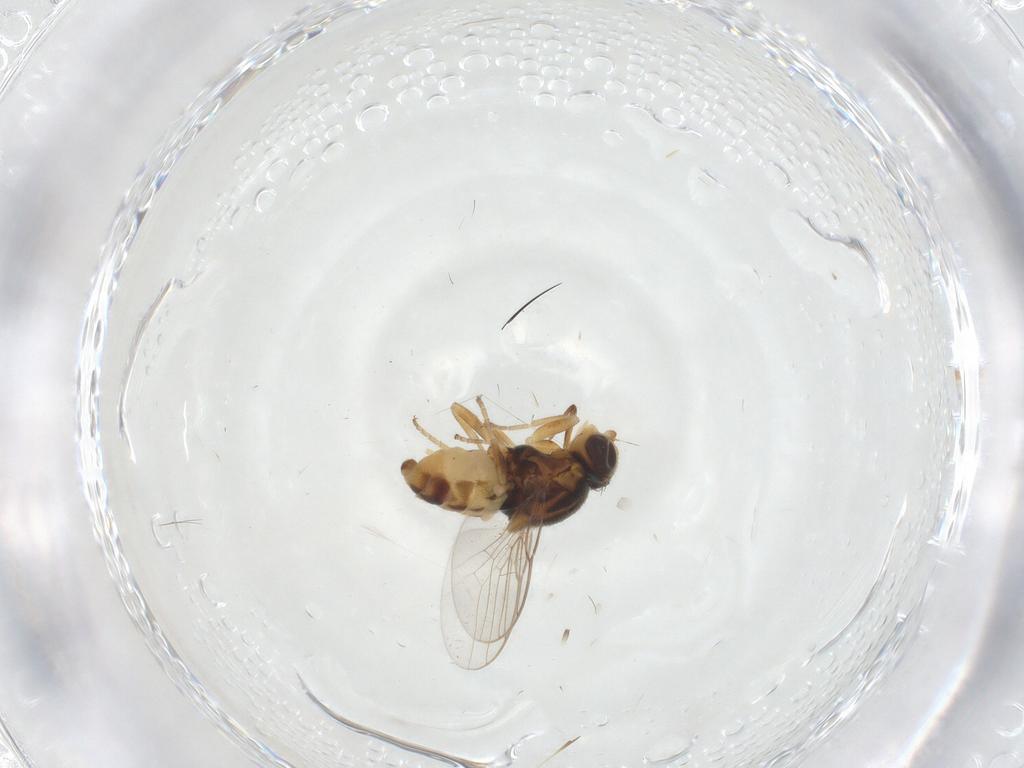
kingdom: Animalia
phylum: Arthropoda
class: Insecta
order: Diptera
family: Chloropidae
